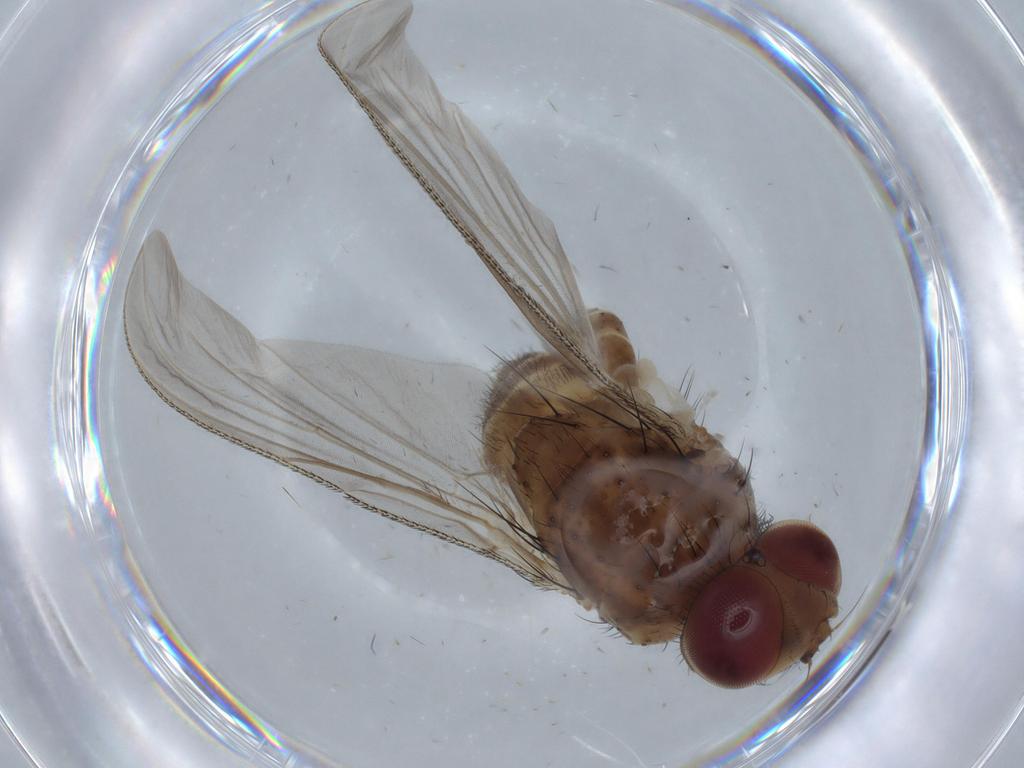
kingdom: Animalia
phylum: Arthropoda
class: Insecta
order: Diptera
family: Tachinidae
